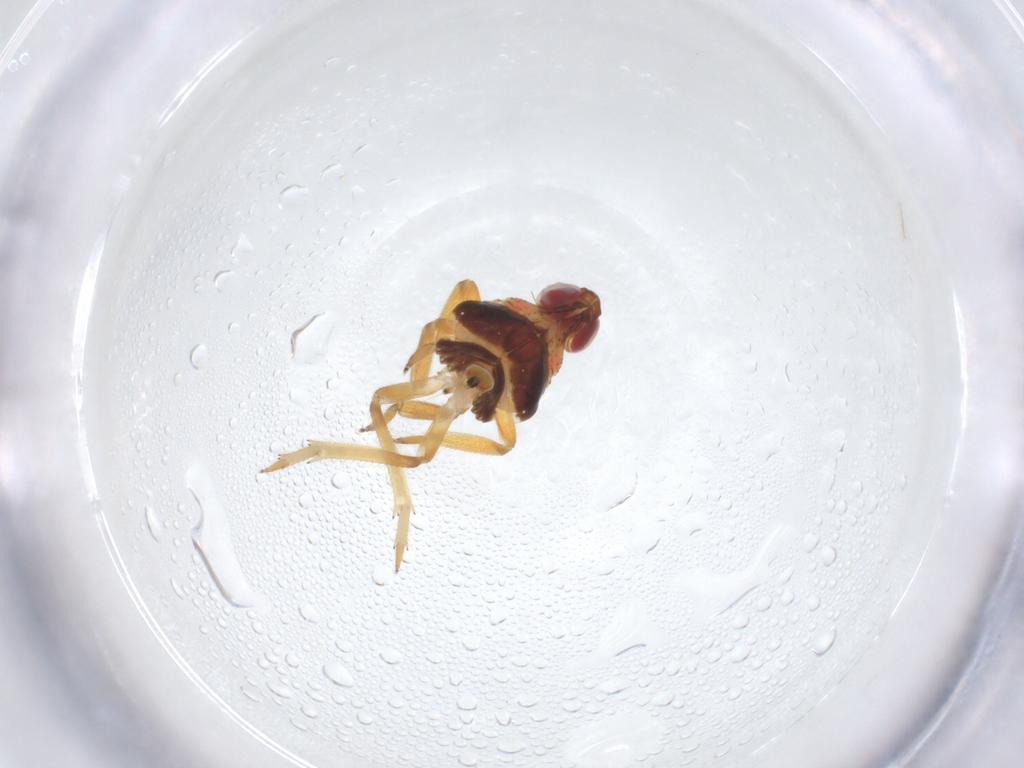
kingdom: Animalia
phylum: Arthropoda
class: Insecta
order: Hemiptera
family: Issidae
